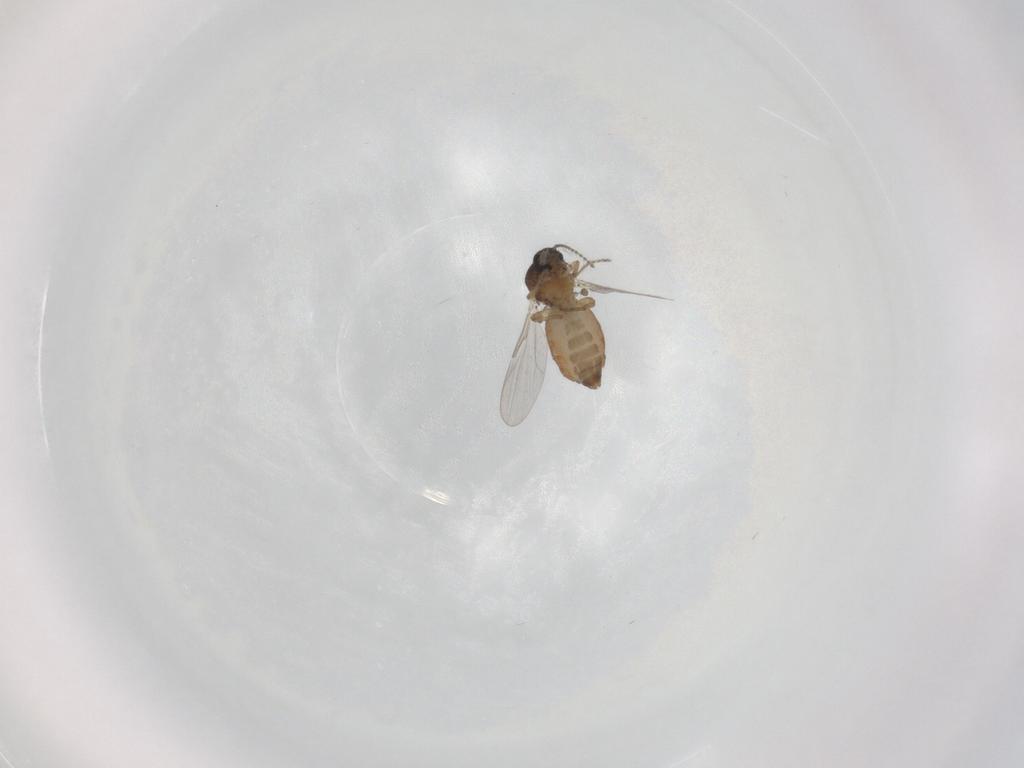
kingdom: Animalia
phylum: Arthropoda
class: Insecta
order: Diptera
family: Ceratopogonidae
